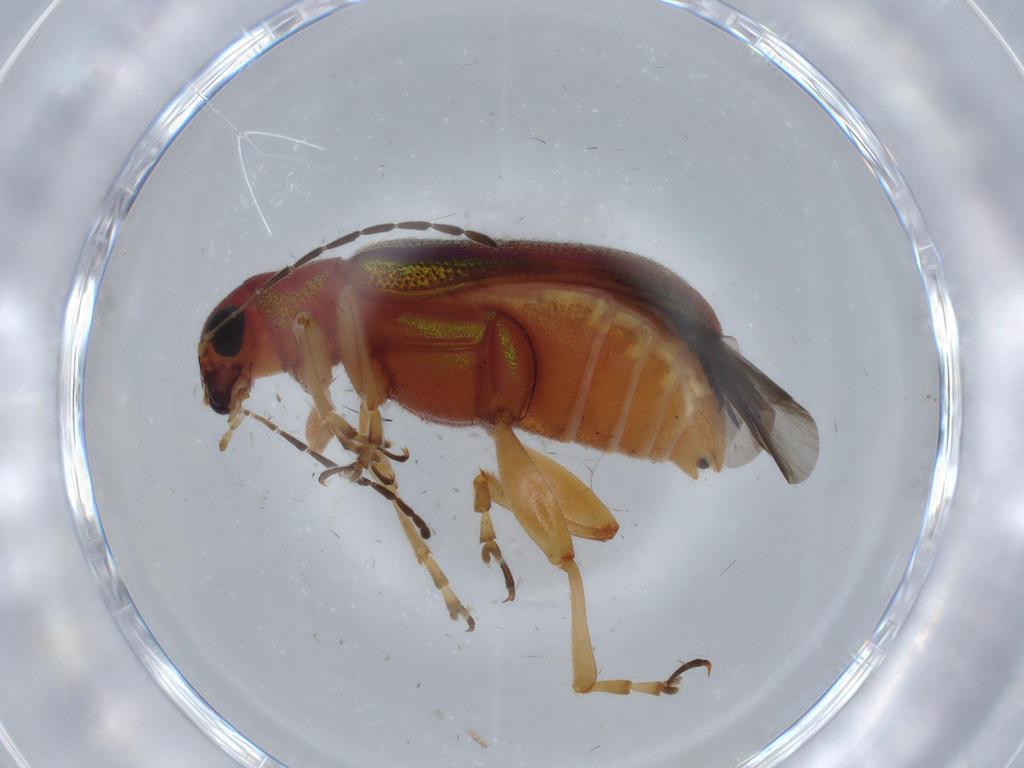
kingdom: Animalia
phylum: Arthropoda
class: Insecta
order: Coleoptera
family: Chrysomelidae
